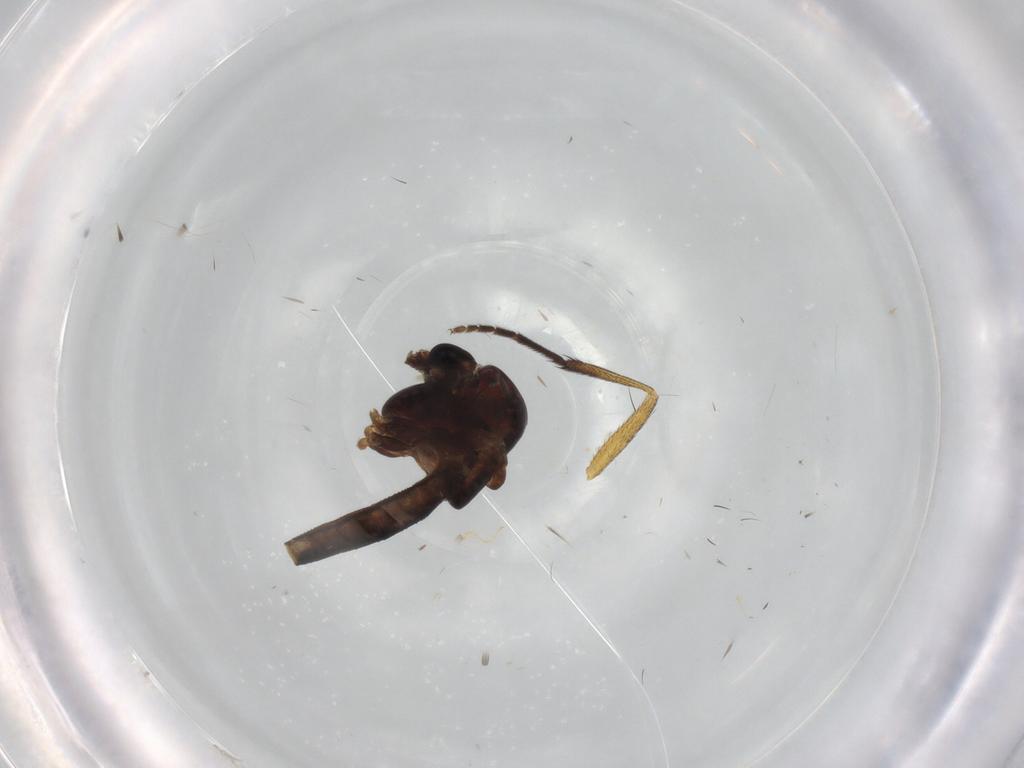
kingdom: Animalia
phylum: Arthropoda
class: Insecta
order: Diptera
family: Chironomidae
